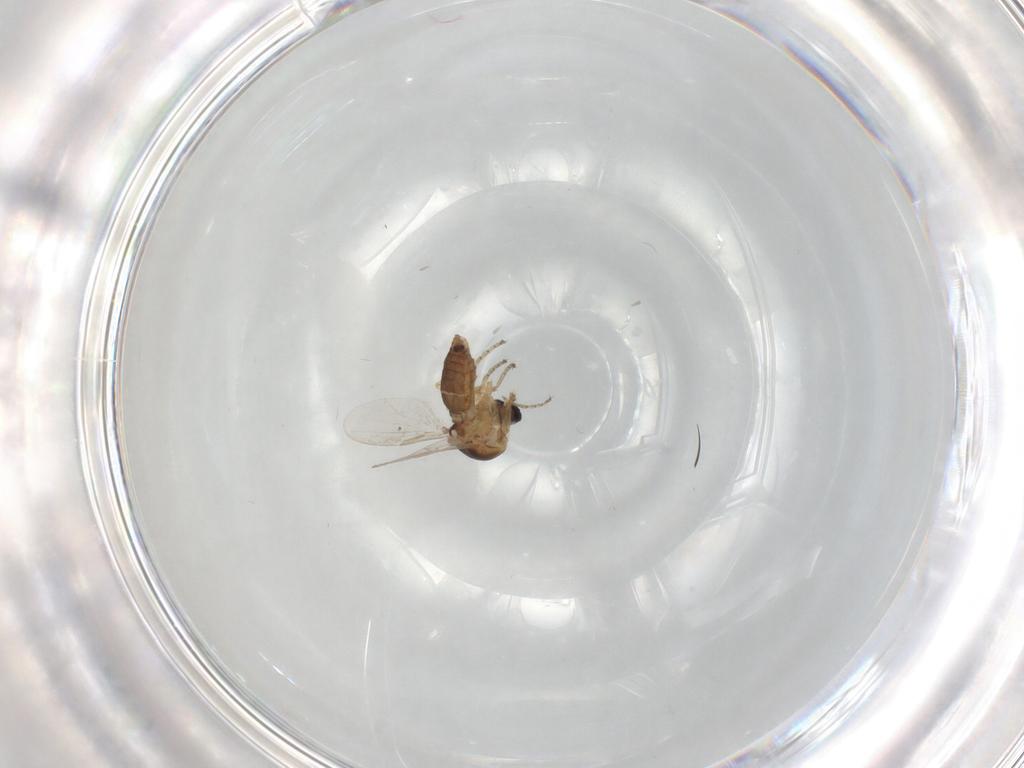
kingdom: Animalia
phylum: Arthropoda
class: Insecta
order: Diptera
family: Ceratopogonidae
